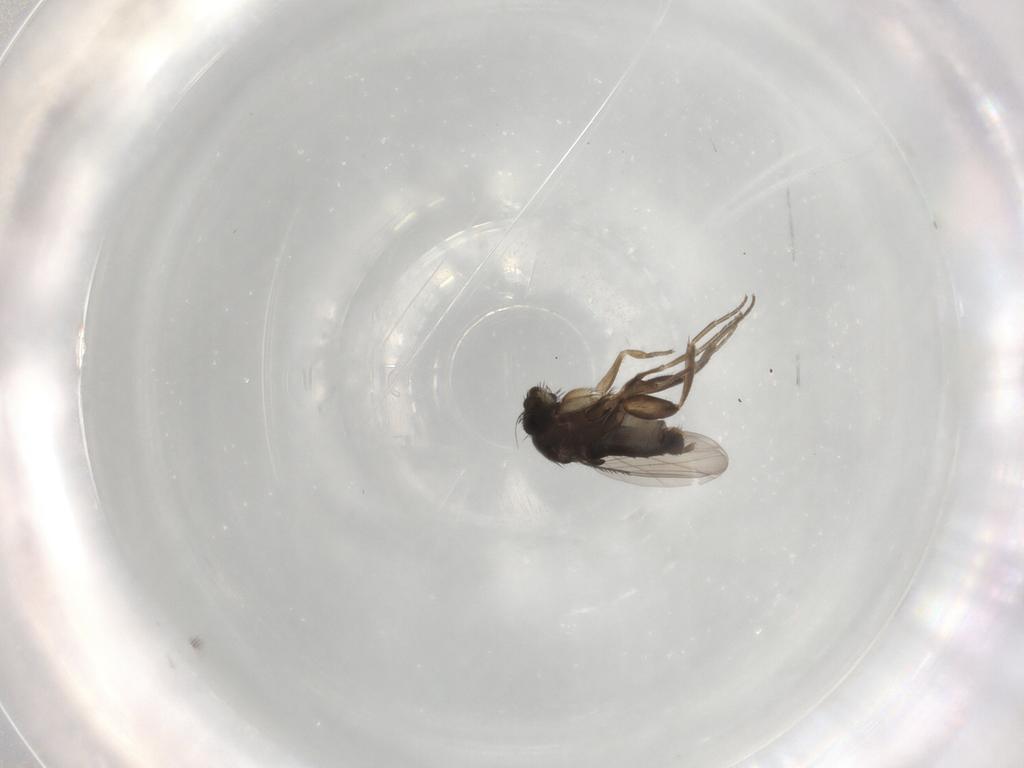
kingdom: Animalia
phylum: Arthropoda
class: Insecta
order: Diptera
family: Phoridae
